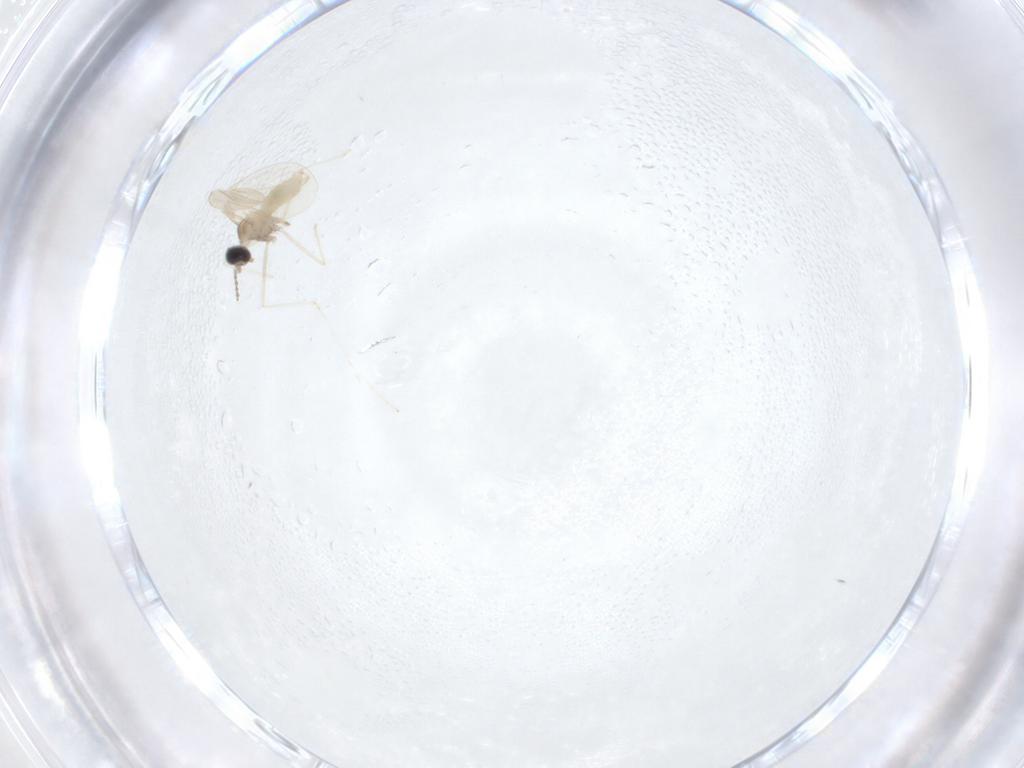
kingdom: Animalia
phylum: Arthropoda
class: Insecta
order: Diptera
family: Cecidomyiidae
